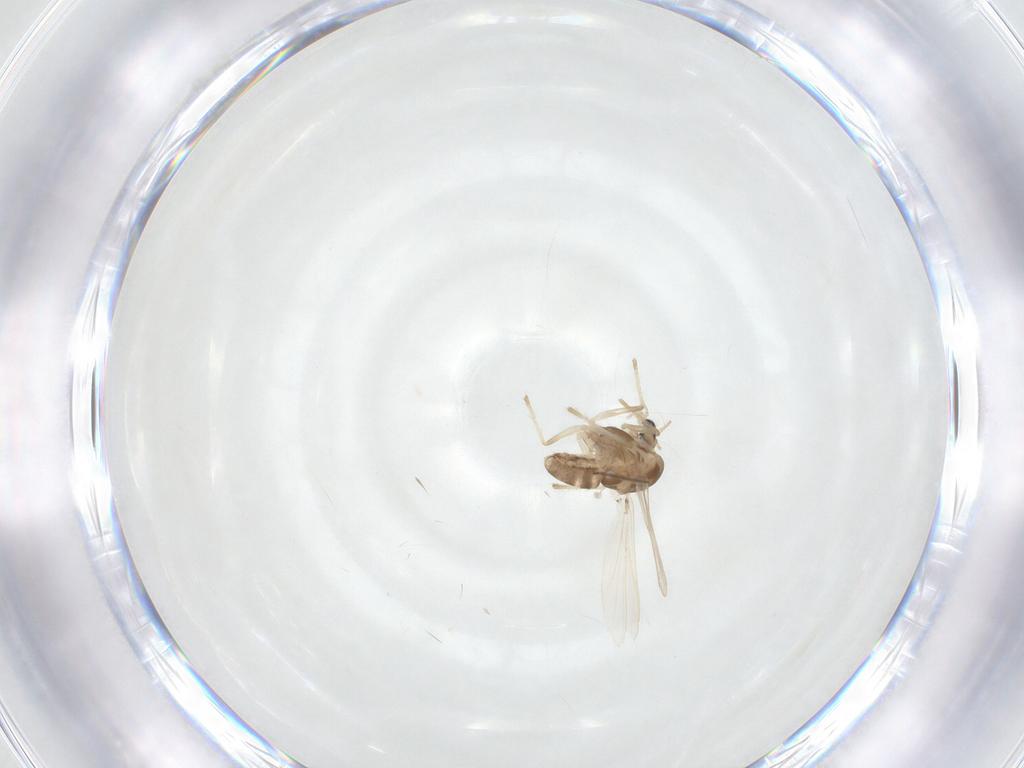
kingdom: Animalia
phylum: Arthropoda
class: Insecta
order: Diptera
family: Chironomidae
